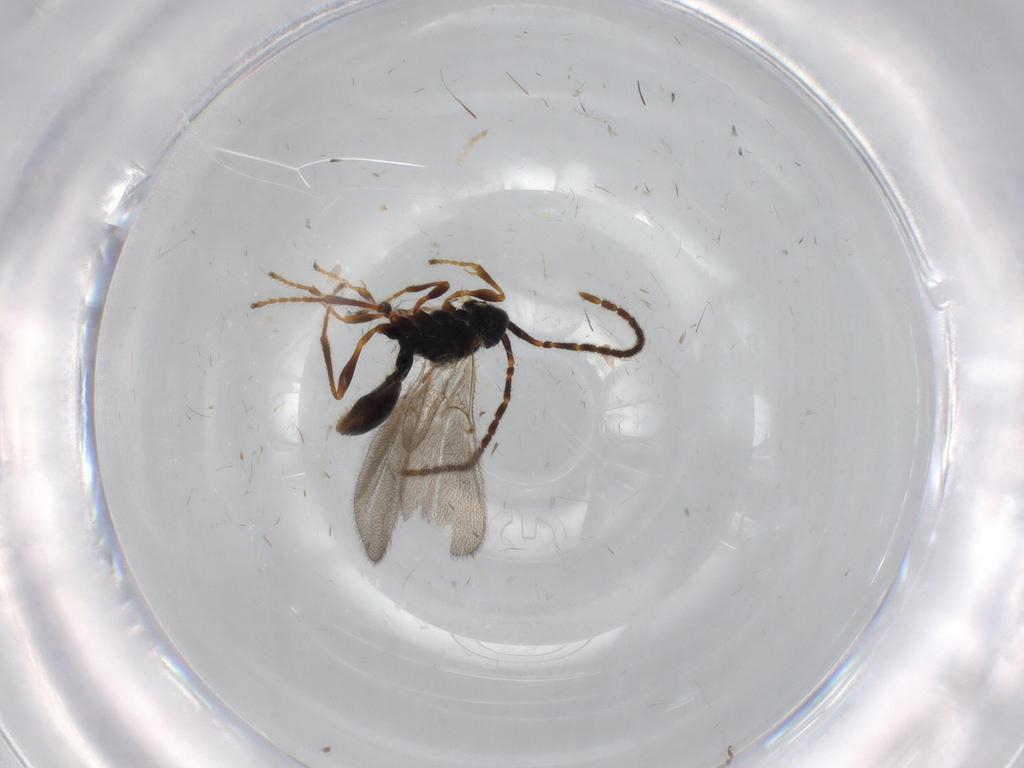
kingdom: Animalia
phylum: Arthropoda
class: Insecta
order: Hymenoptera
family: Diapriidae
